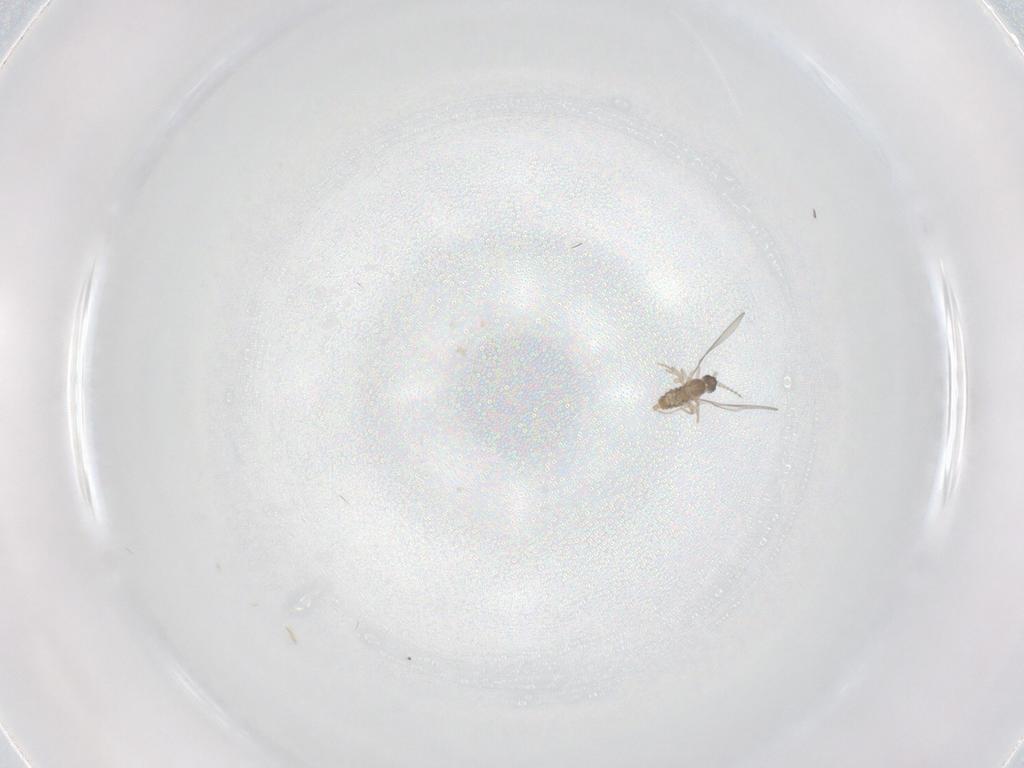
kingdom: Animalia
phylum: Arthropoda
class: Insecta
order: Diptera
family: Cecidomyiidae
